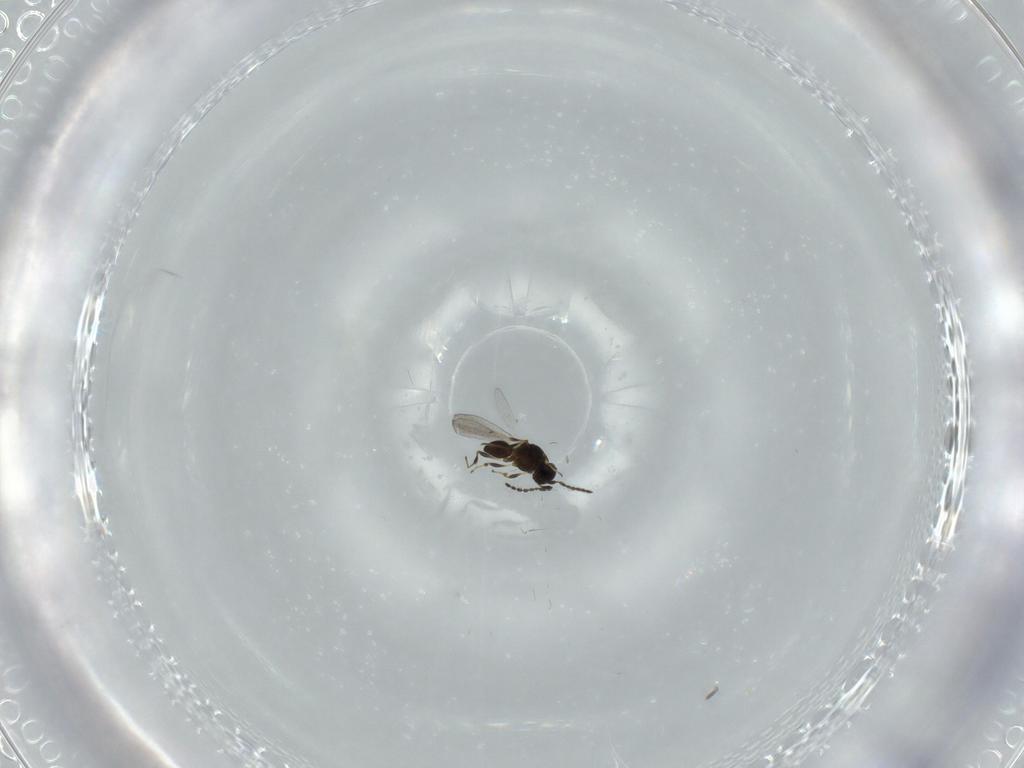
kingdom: Animalia
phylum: Arthropoda
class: Insecta
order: Hymenoptera
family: Platygastridae
